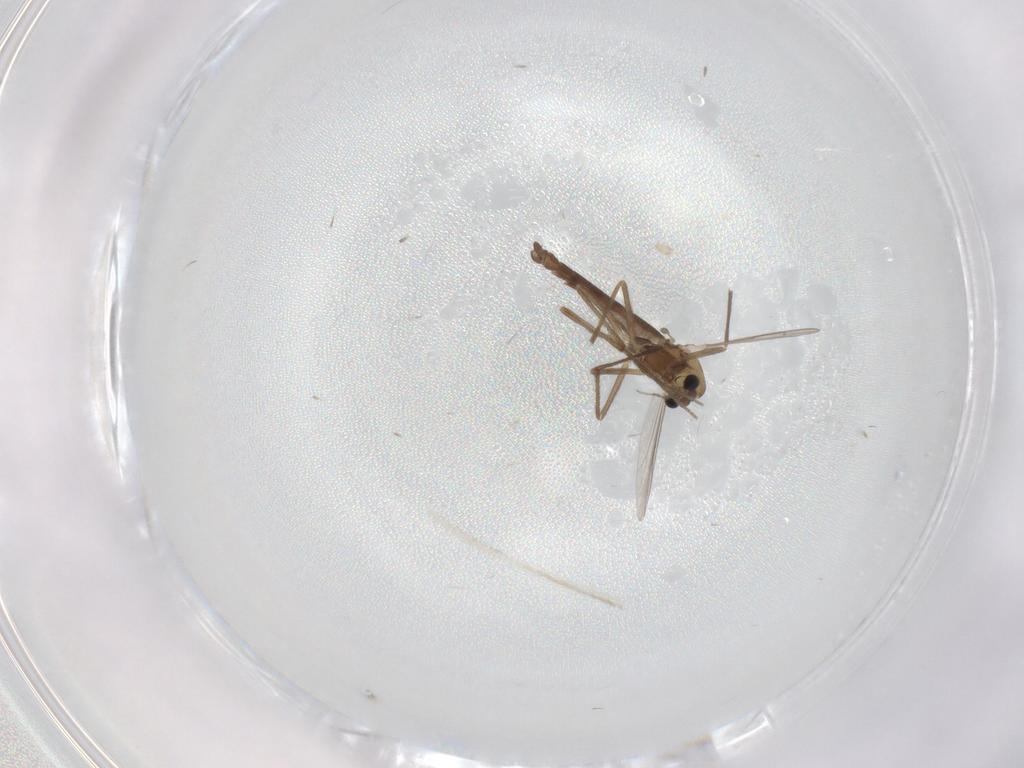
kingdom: Animalia
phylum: Arthropoda
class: Insecta
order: Diptera
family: Chironomidae
